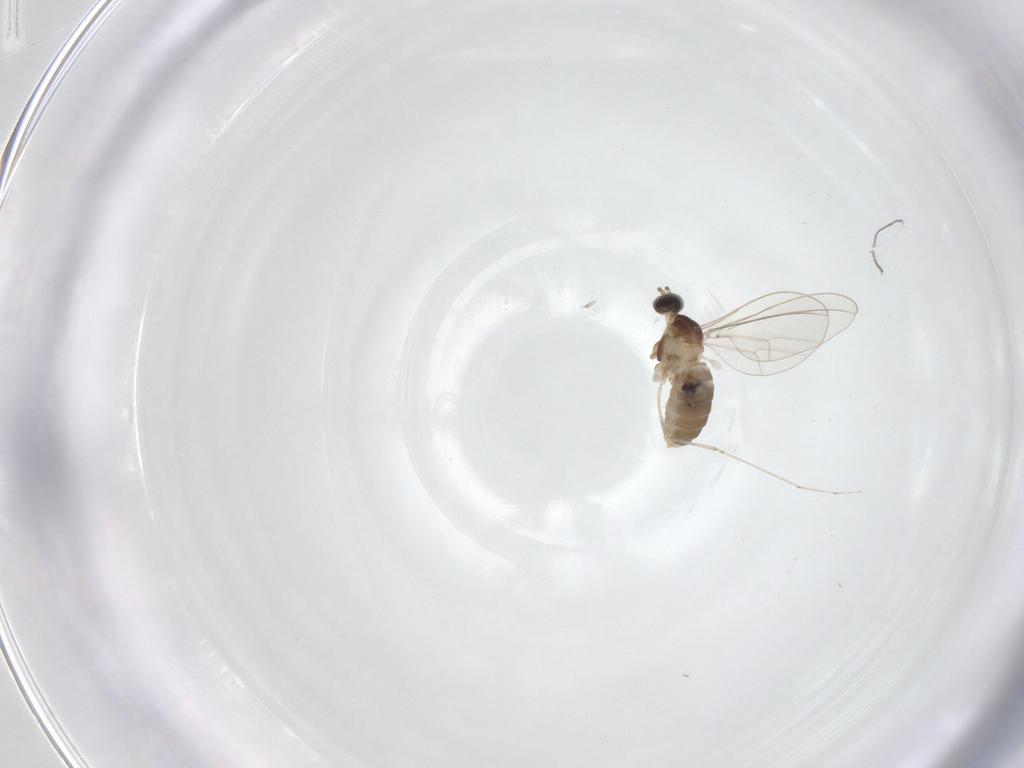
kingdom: Animalia
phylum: Arthropoda
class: Insecta
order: Diptera
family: Cecidomyiidae
